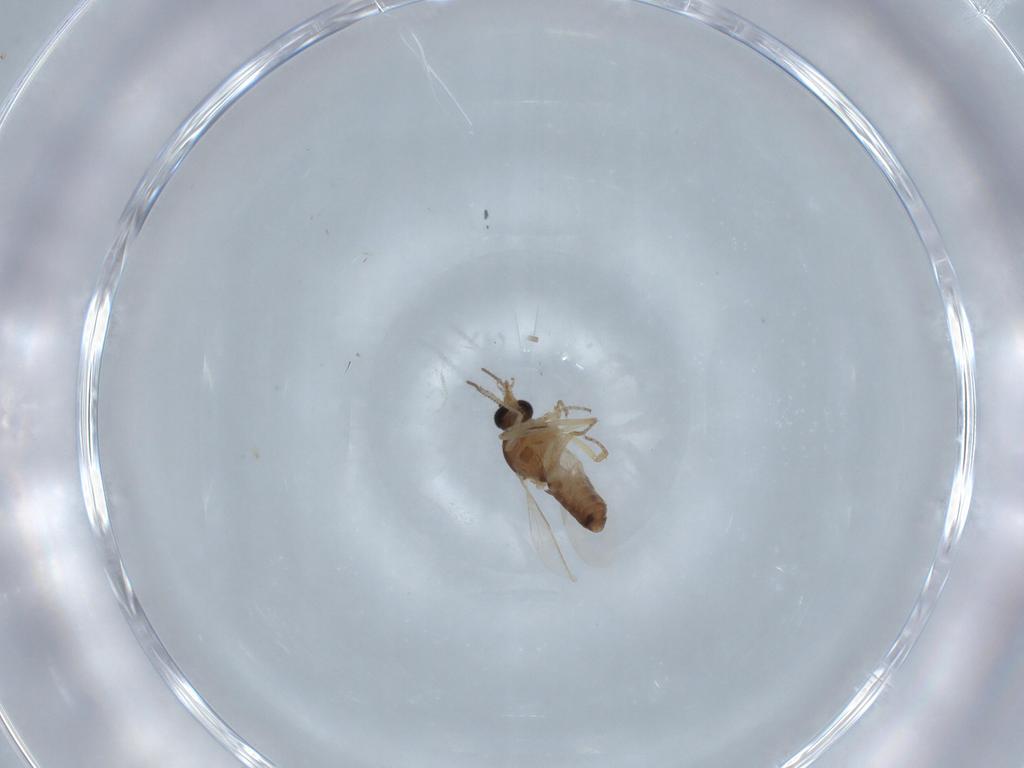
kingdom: Animalia
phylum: Arthropoda
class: Insecta
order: Diptera
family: Ceratopogonidae
